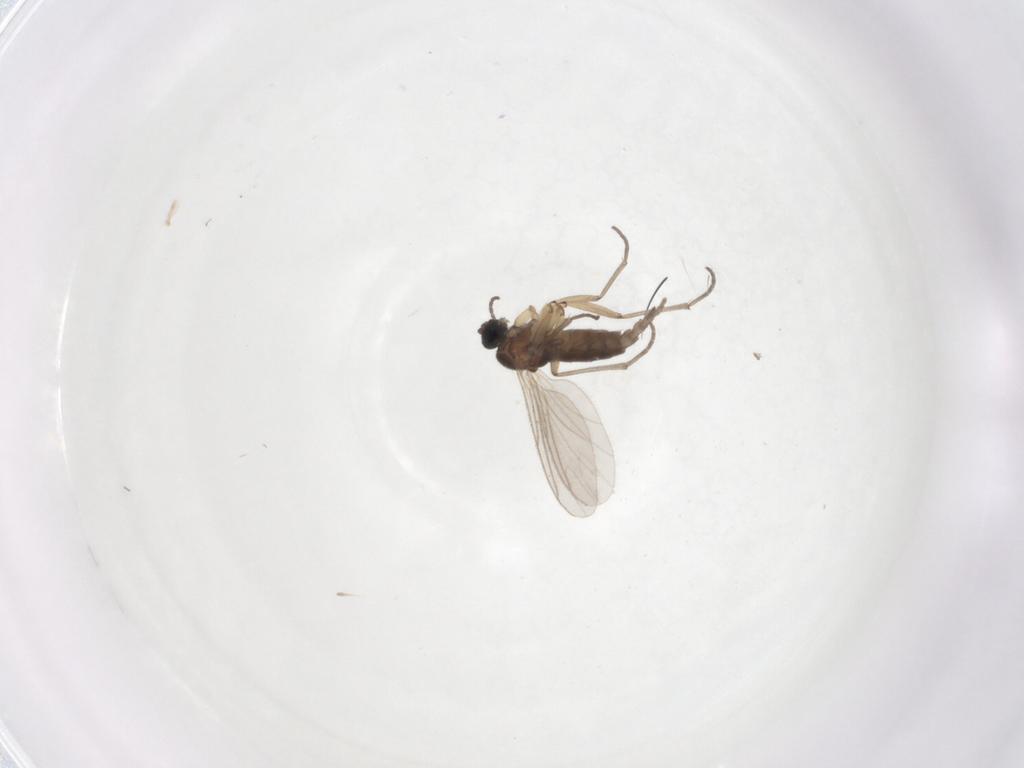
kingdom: Animalia
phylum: Arthropoda
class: Insecta
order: Diptera
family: Sciaridae
